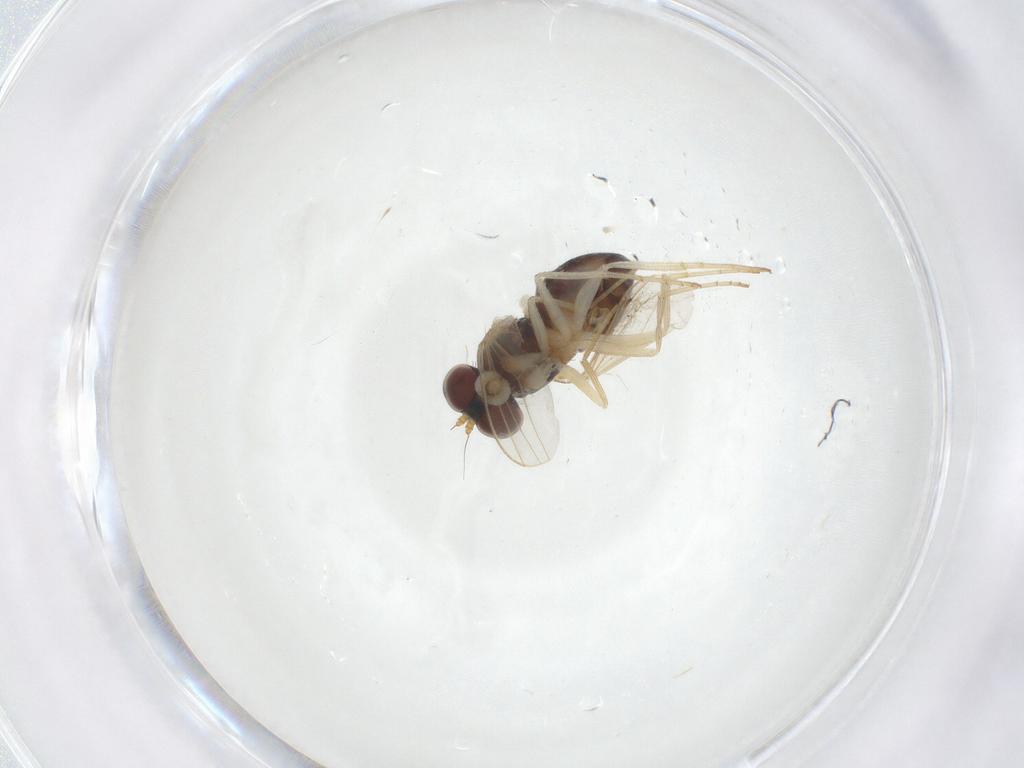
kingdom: Animalia
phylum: Arthropoda
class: Insecta
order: Diptera
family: Dolichopodidae
